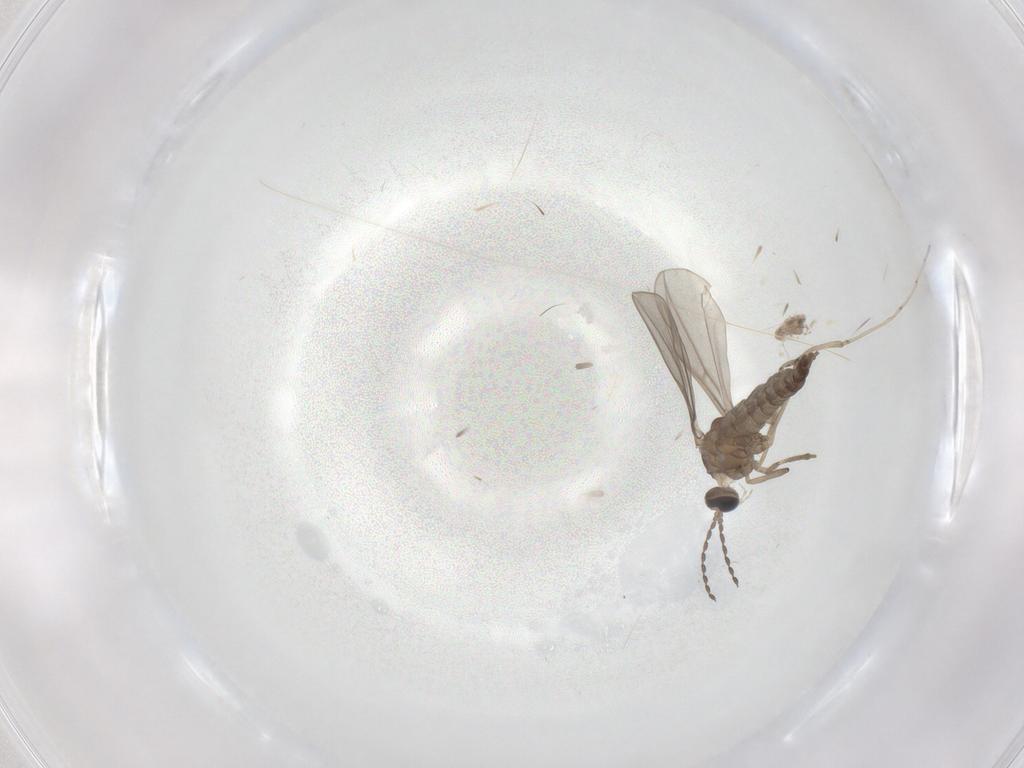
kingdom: Animalia
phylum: Arthropoda
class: Insecta
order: Diptera
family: Cecidomyiidae
